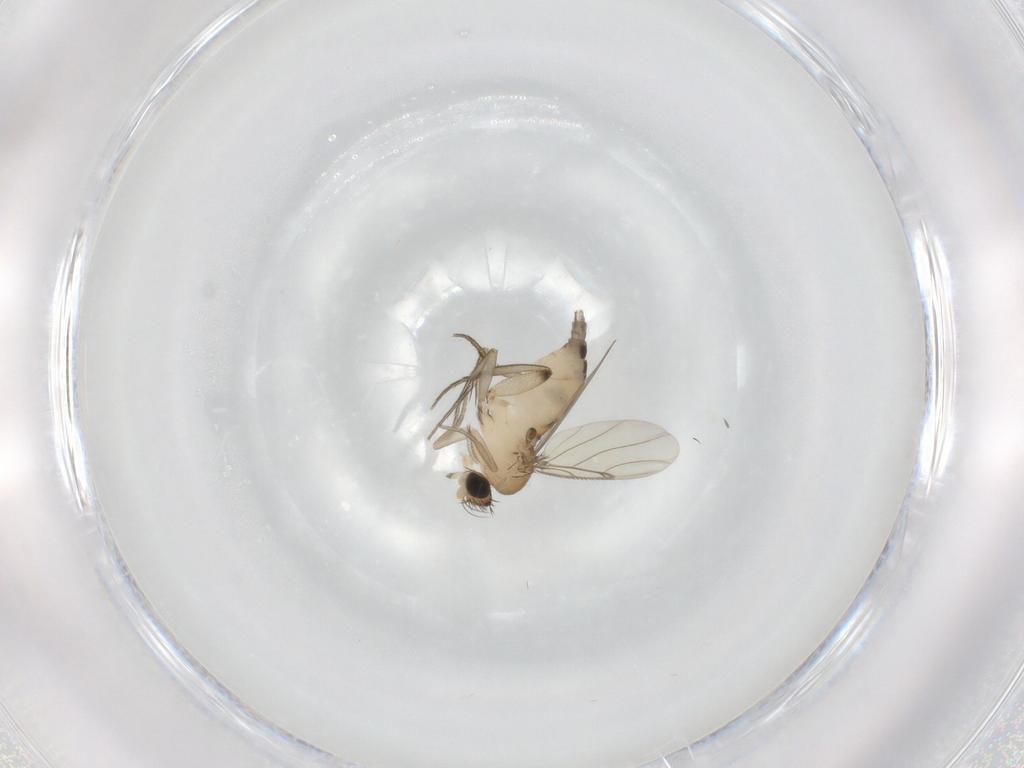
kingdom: Animalia
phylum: Arthropoda
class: Insecta
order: Diptera
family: Phoridae
